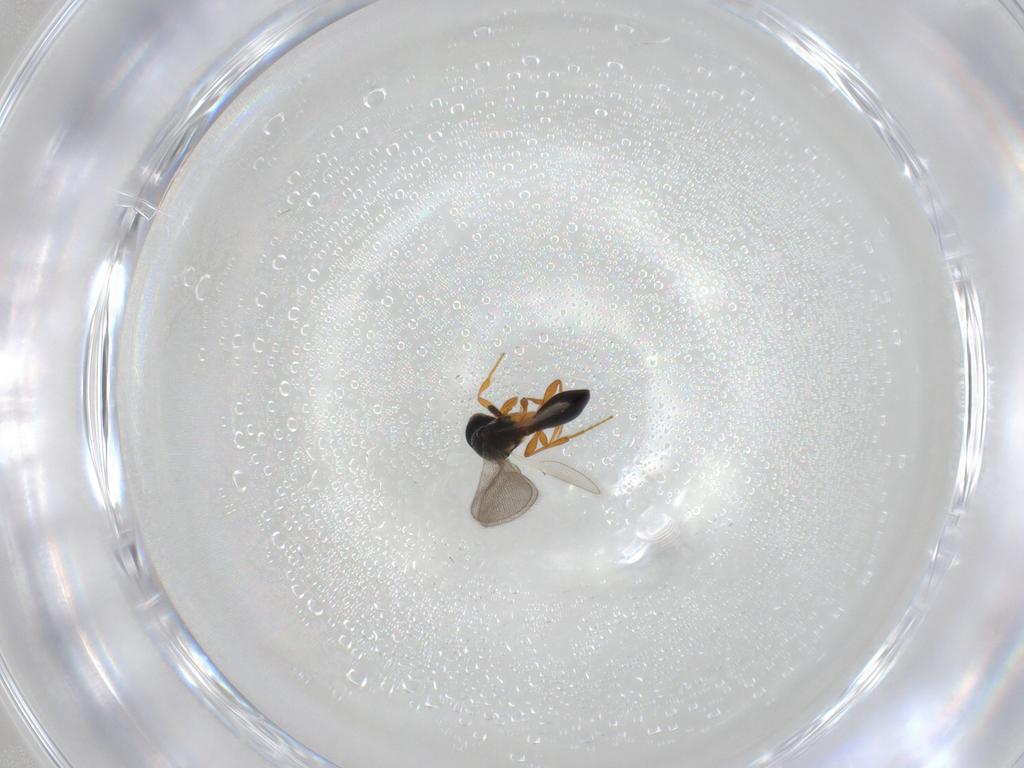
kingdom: Animalia
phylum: Arthropoda
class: Insecta
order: Hymenoptera
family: Platygastridae
